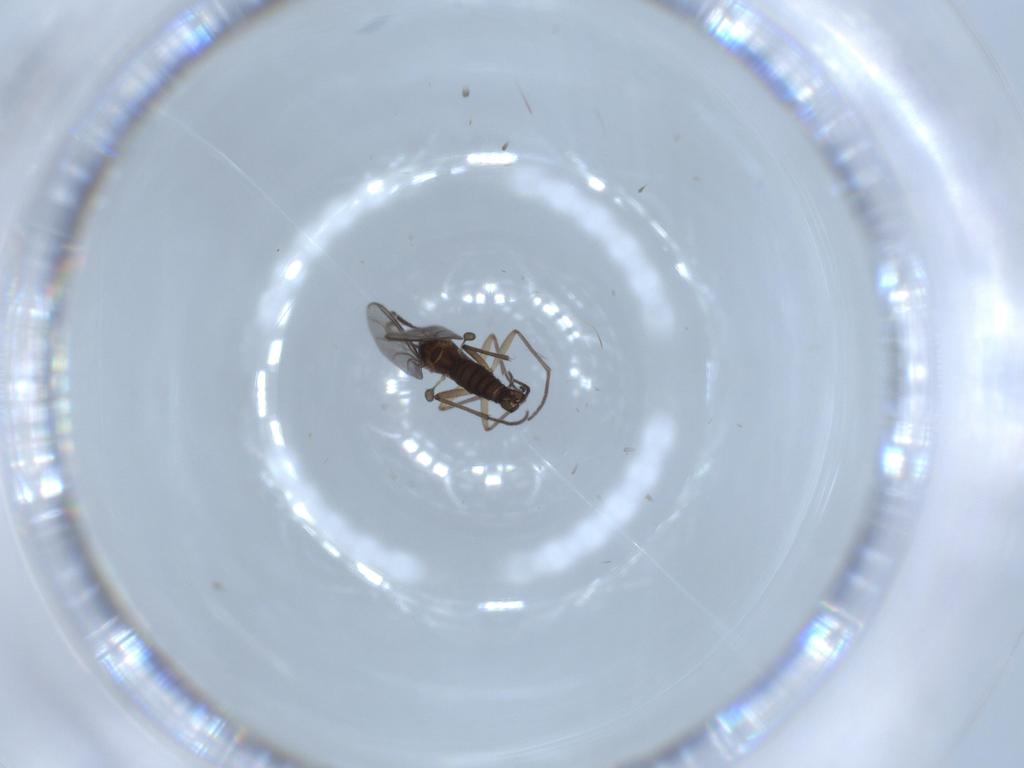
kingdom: Animalia
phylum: Arthropoda
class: Insecta
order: Diptera
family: Sciaridae
